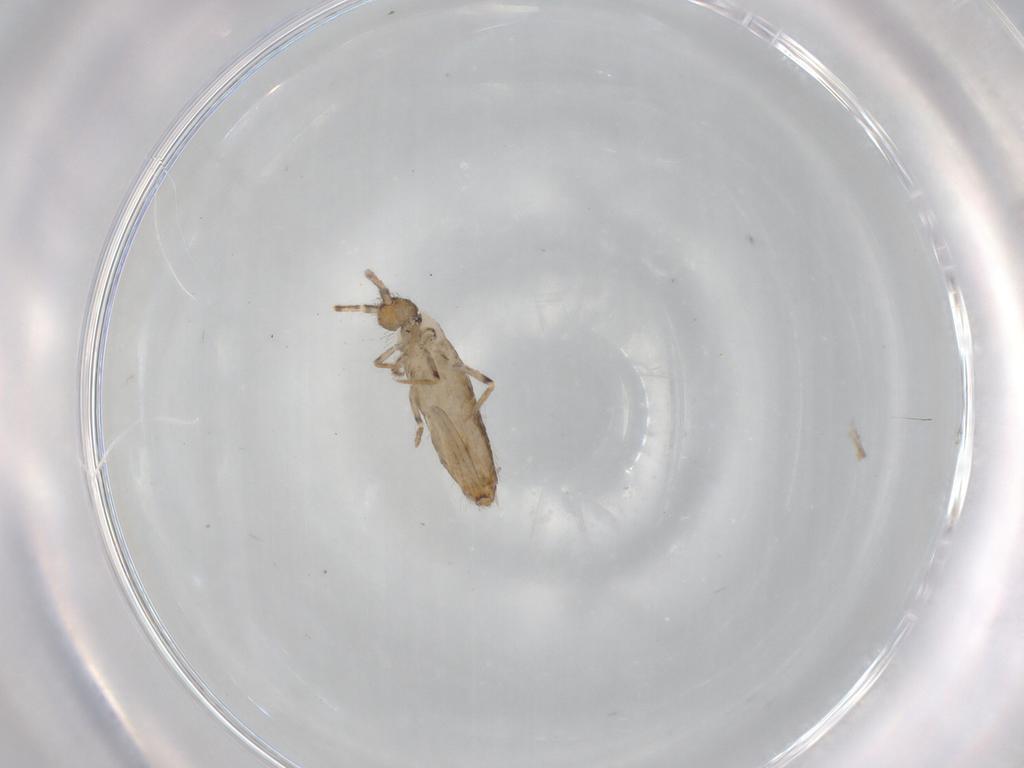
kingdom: Animalia
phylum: Arthropoda
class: Collembola
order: Entomobryomorpha
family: Entomobryidae
